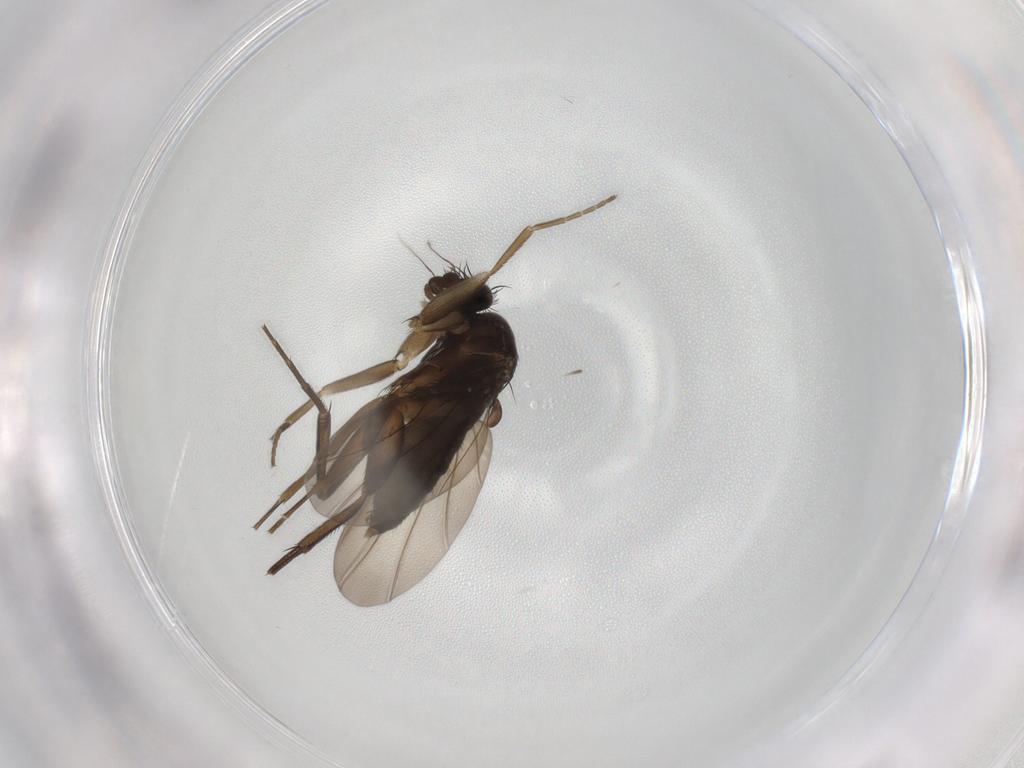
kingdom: Animalia
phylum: Arthropoda
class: Insecta
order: Diptera
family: Phoridae
